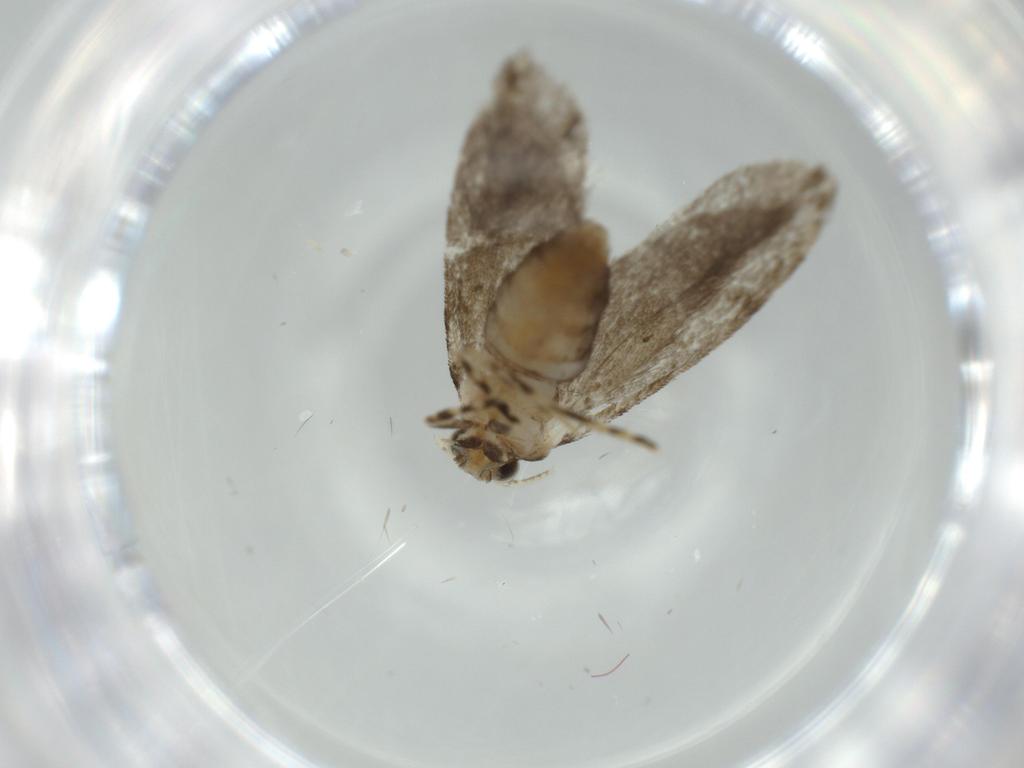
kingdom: Animalia
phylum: Arthropoda
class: Insecta
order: Lepidoptera
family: Tineidae
